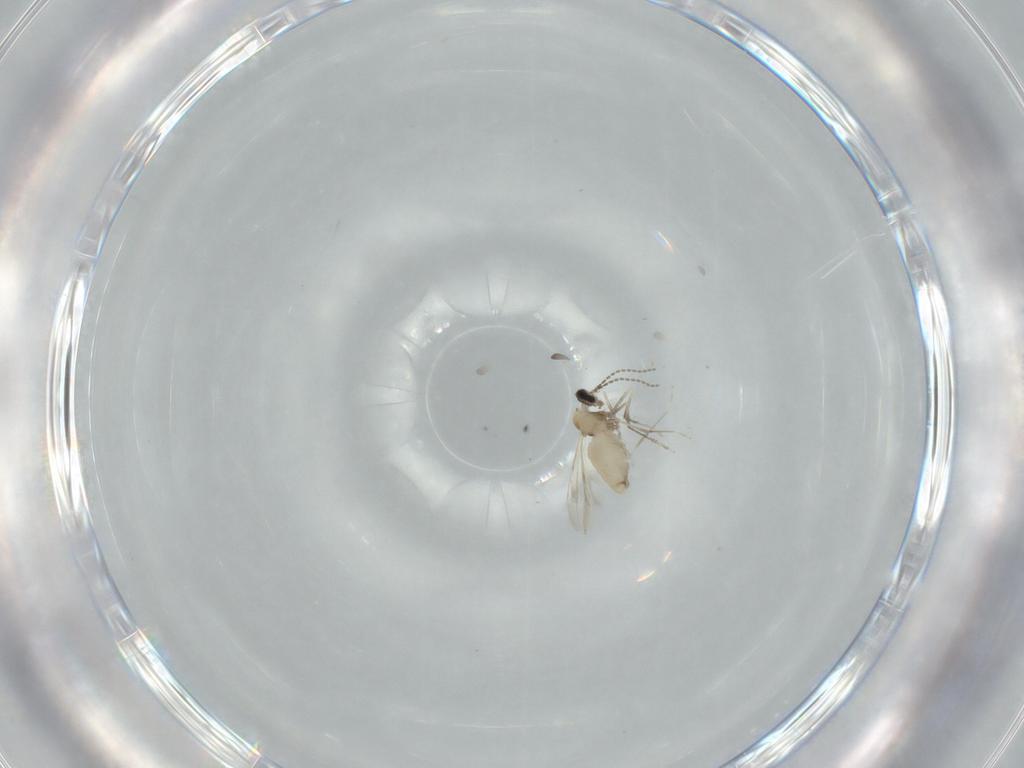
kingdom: Animalia
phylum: Arthropoda
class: Insecta
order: Diptera
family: Cecidomyiidae
